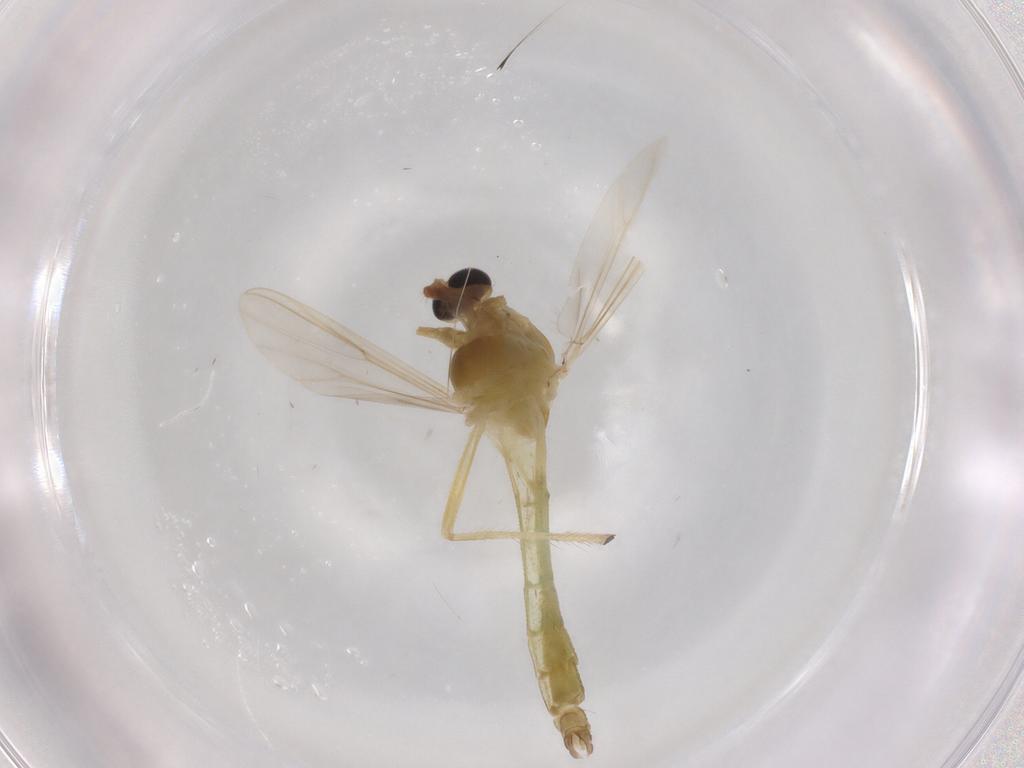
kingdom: Animalia
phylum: Arthropoda
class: Insecta
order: Diptera
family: Chironomidae
